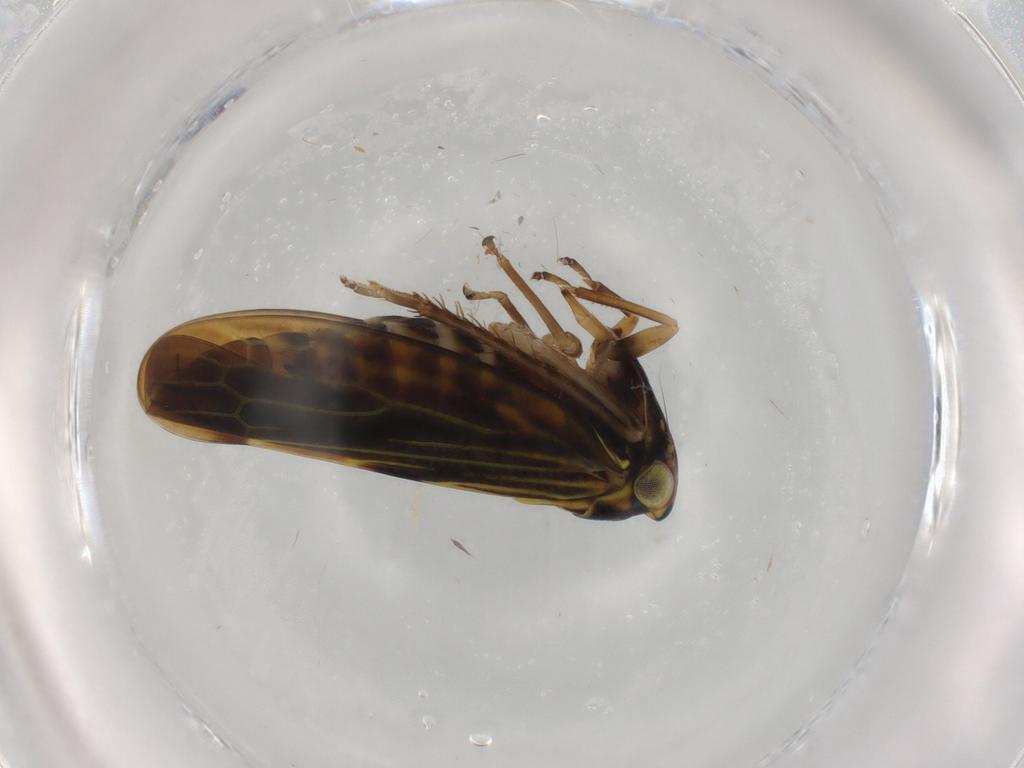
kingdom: Animalia
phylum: Arthropoda
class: Insecta
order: Hemiptera
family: Cicadellidae
